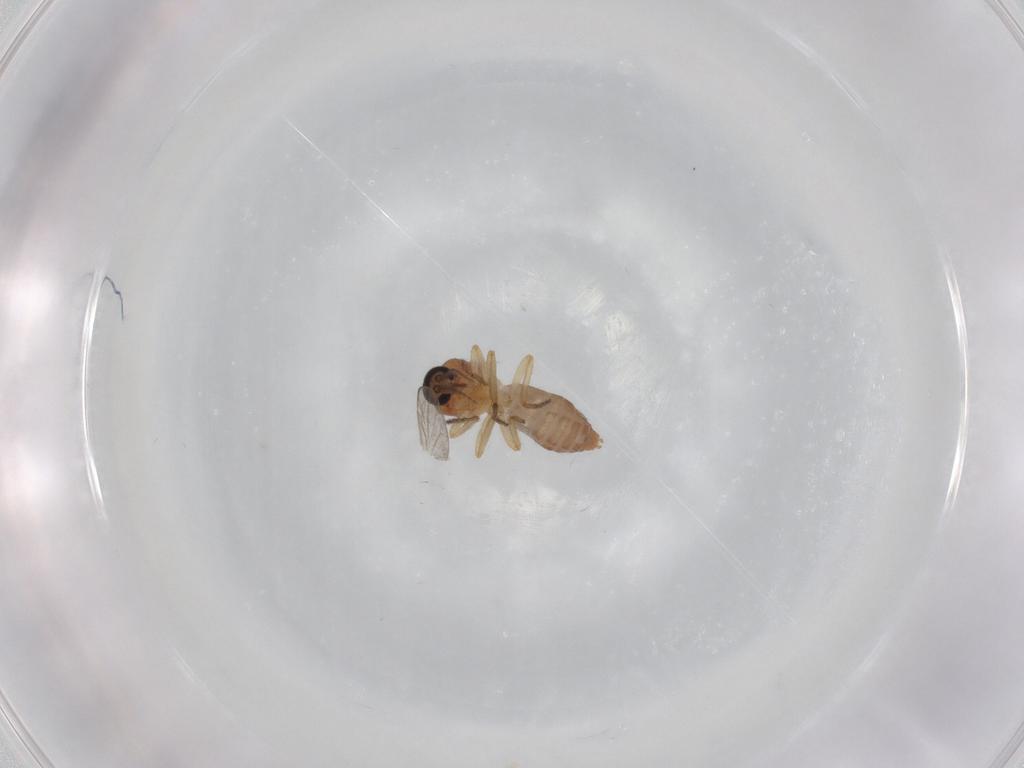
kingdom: Animalia
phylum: Arthropoda
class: Insecta
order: Diptera
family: Ceratopogonidae
